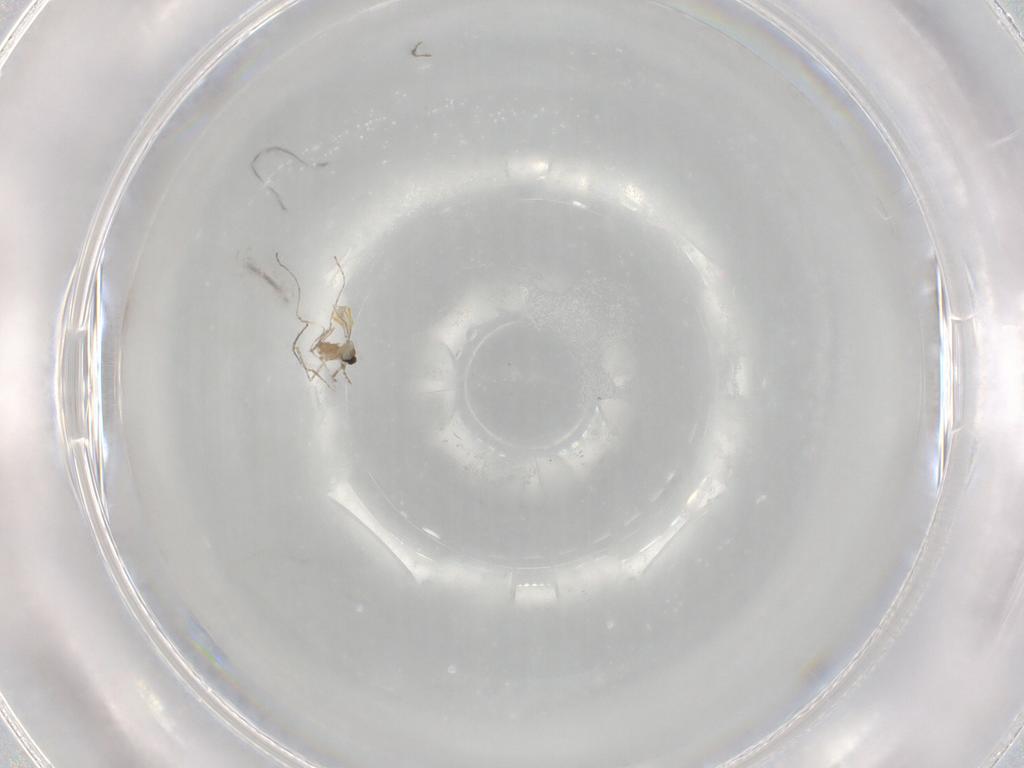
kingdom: Animalia
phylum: Arthropoda
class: Insecta
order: Diptera
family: Cecidomyiidae
